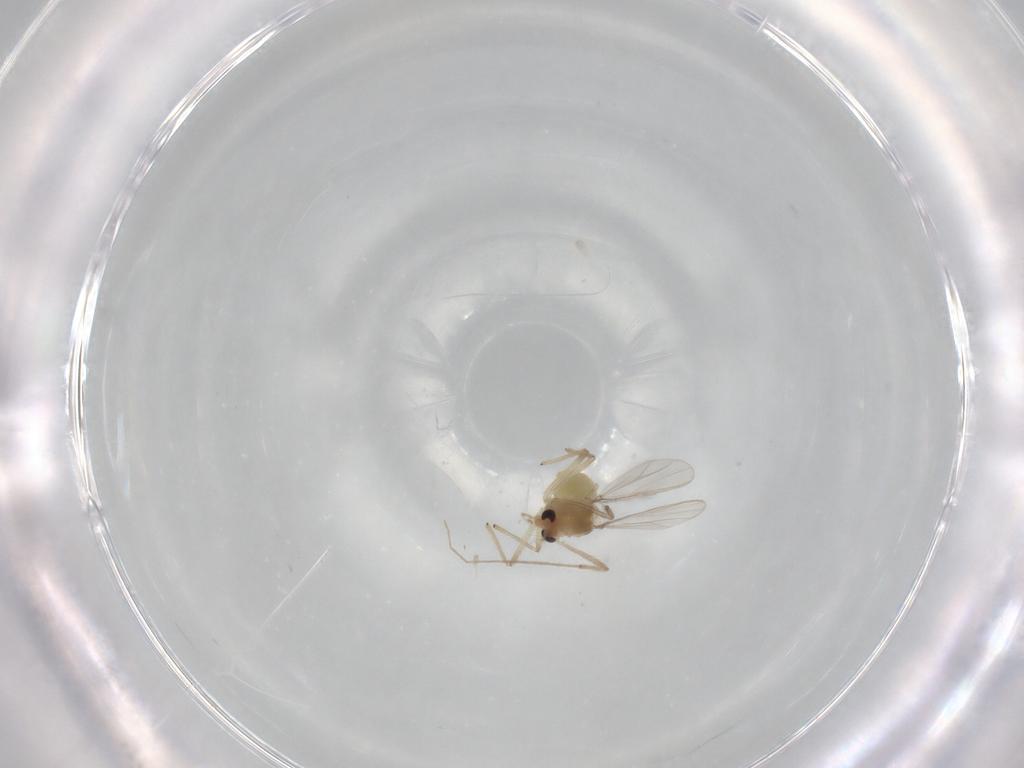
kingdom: Animalia
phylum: Arthropoda
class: Insecta
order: Diptera
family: Chironomidae
